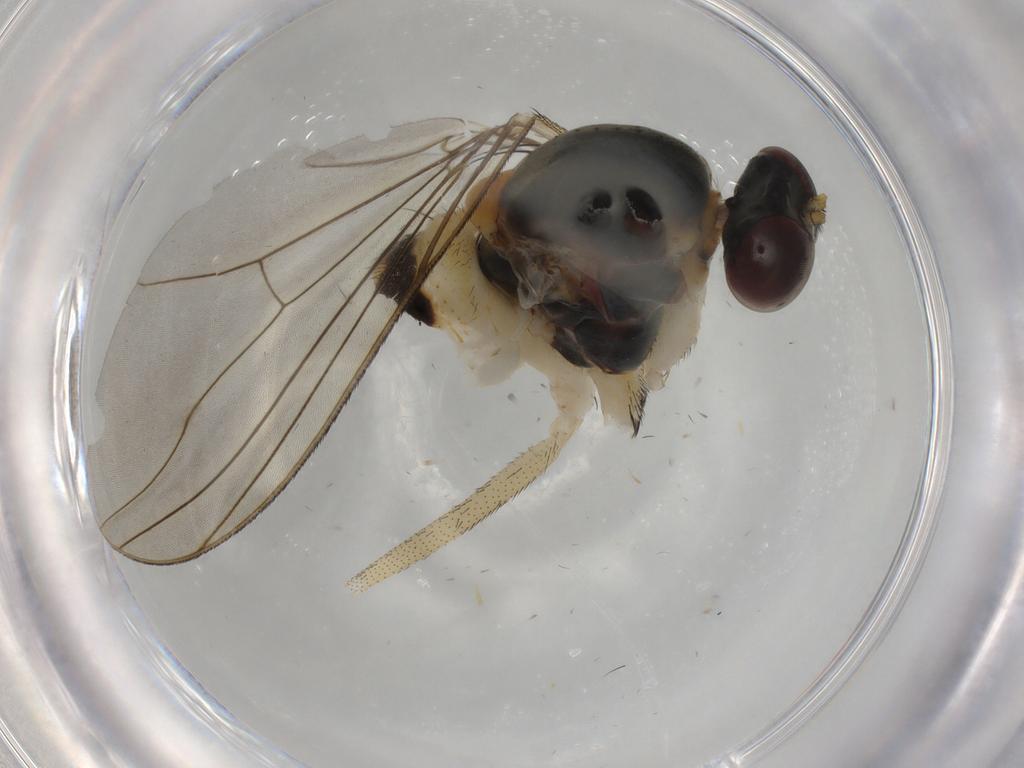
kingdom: Animalia
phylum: Arthropoda
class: Insecta
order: Diptera
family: Dolichopodidae
